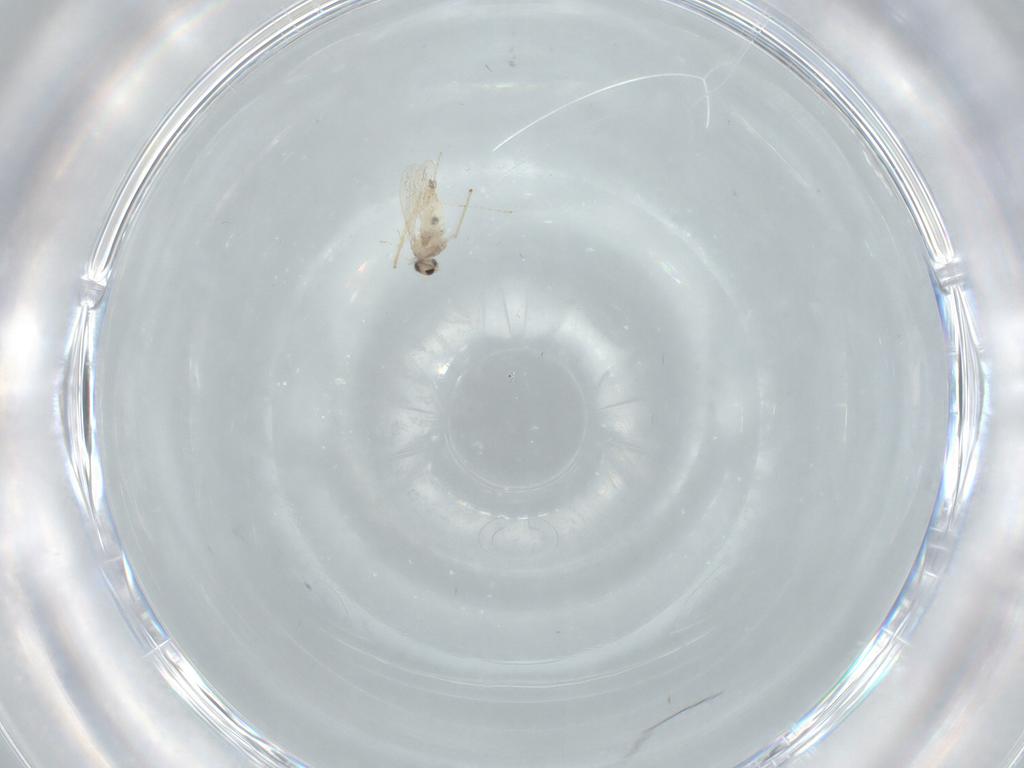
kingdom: Animalia
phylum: Arthropoda
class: Insecta
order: Diptera
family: Cecidomyiidae
